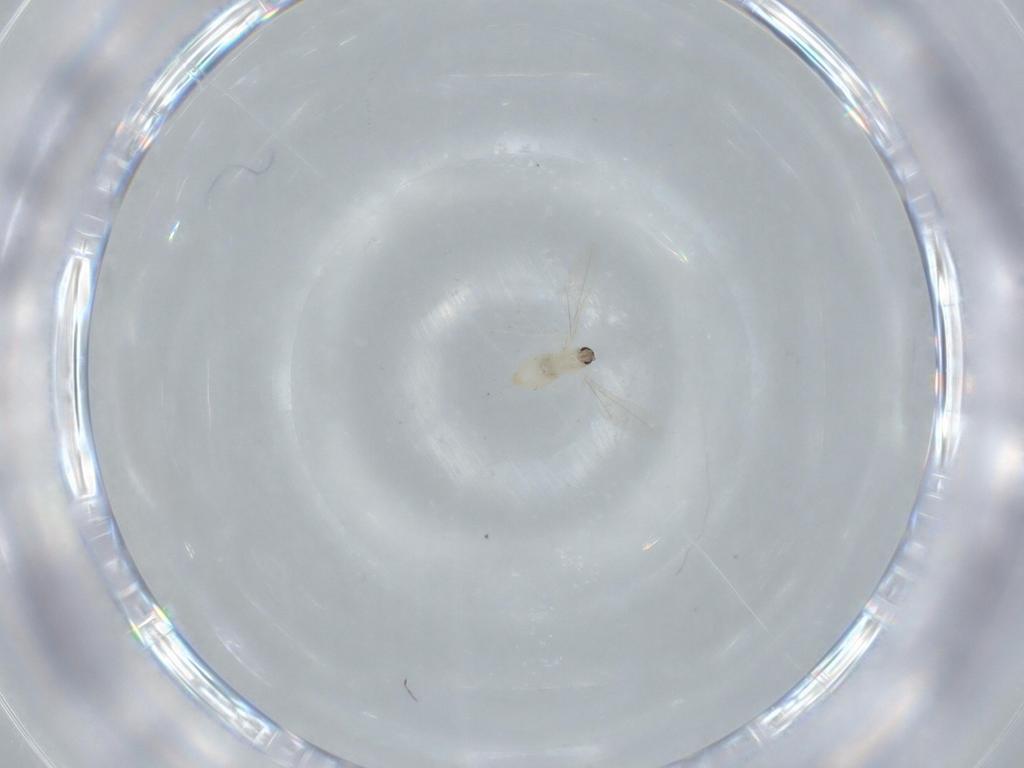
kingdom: Animalia
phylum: Arthropoda
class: Insecta
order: Diptera
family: Cecidomyiidae
